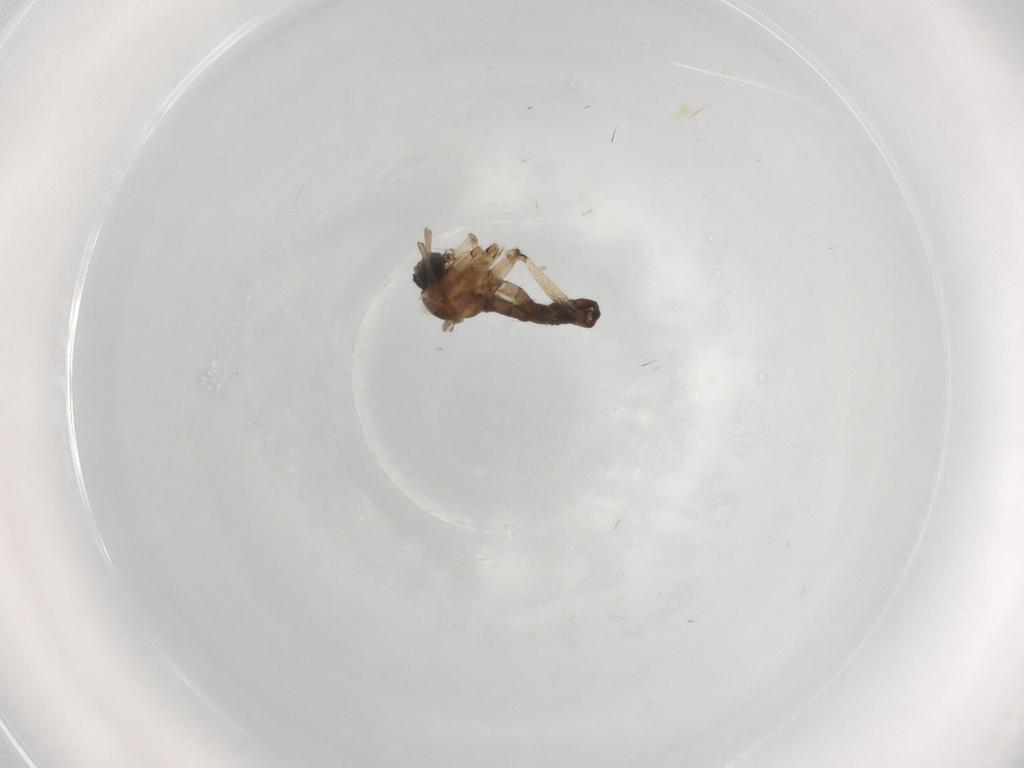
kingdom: Animalia
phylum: Arthropoda
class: Insecta
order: Diptera
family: Sciaridae
